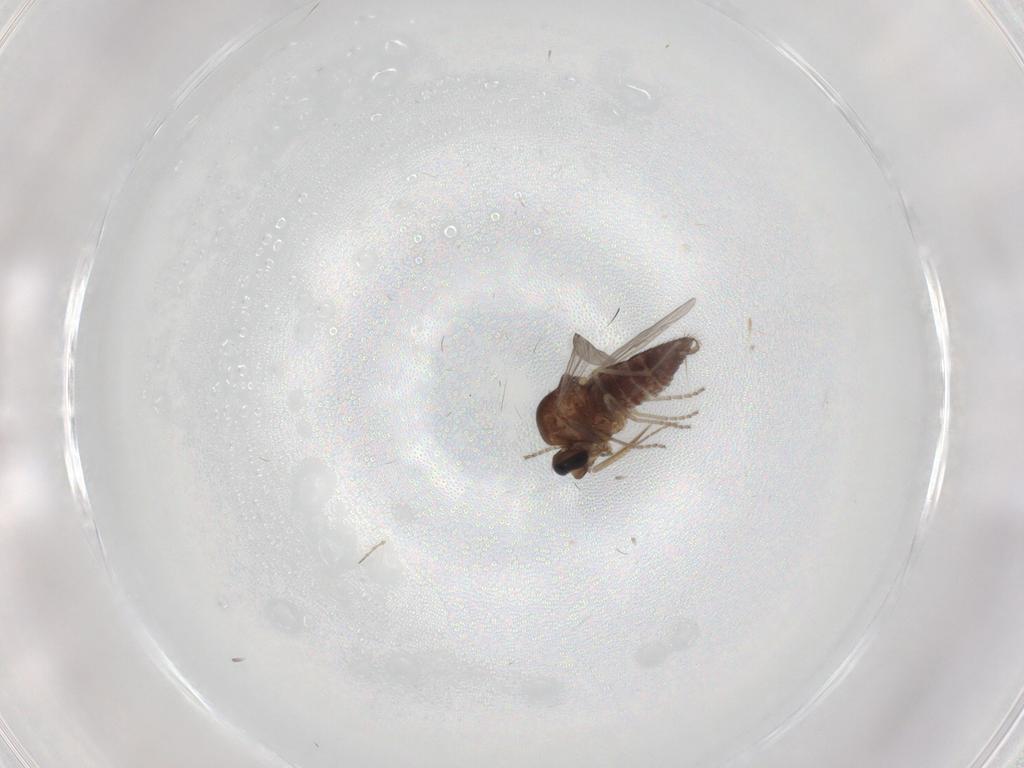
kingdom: Animalia
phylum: Arthropoda
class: Insecta
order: Diptera
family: Ceratopogonidae
